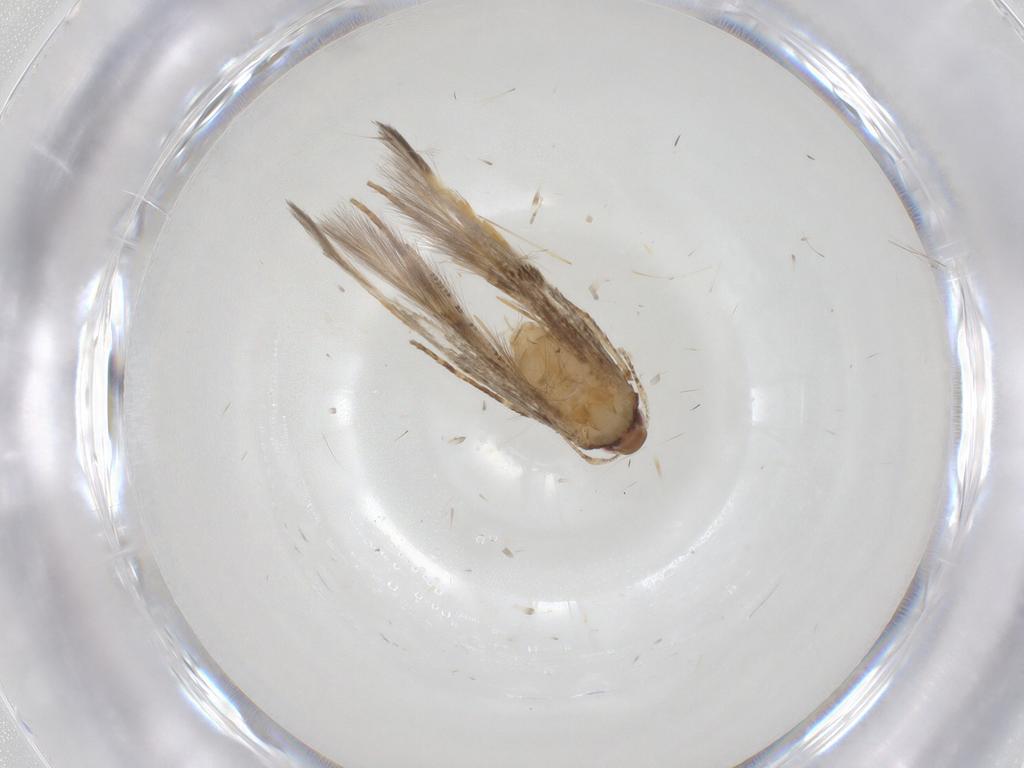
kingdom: Animalia
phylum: Arthropoda
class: Insecta
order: Lepidoptera
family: Cosmopterigidae
